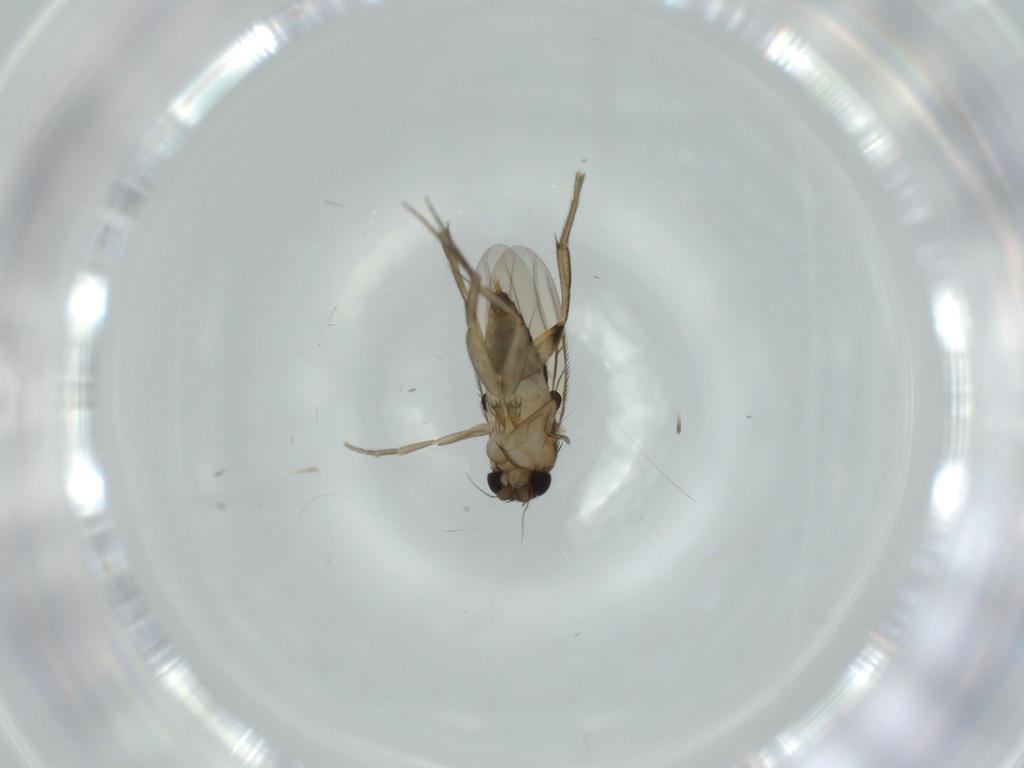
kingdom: Animalia
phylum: Arthropoda
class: Insecta
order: Diptera
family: Phoridae
